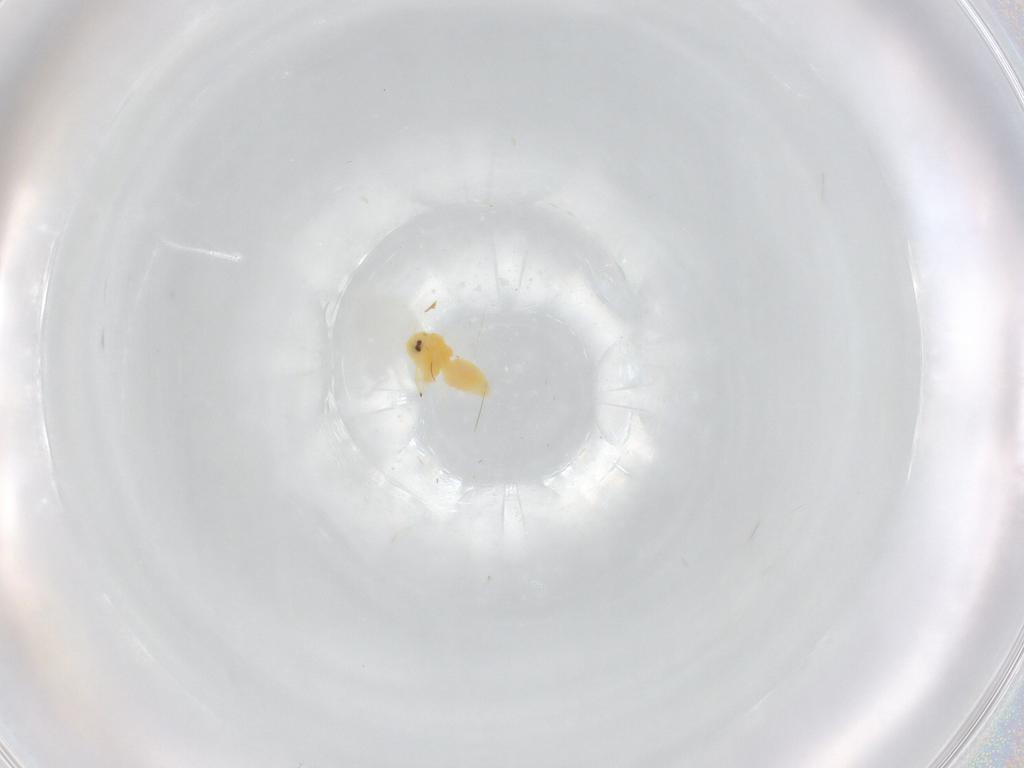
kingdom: Animalia
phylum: Arthropoda
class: Insecta
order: Hemiptera
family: Aleyrodidae
